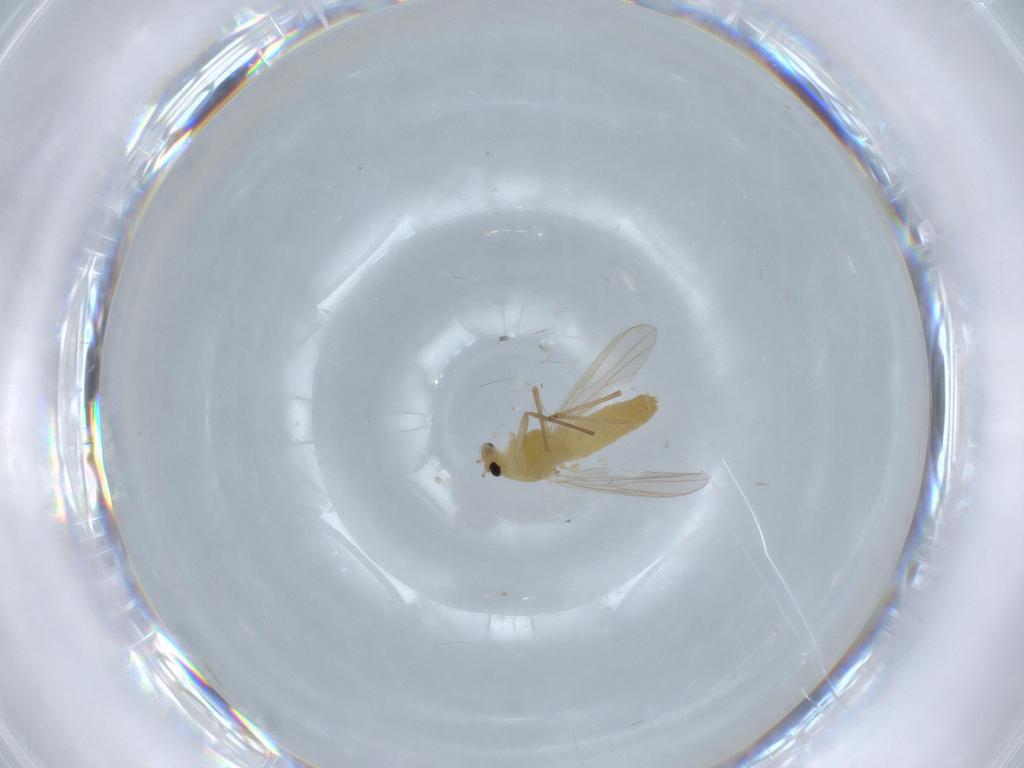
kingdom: Animalia
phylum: Arthropoda
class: Insecta
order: Diptera
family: Chironomidae
